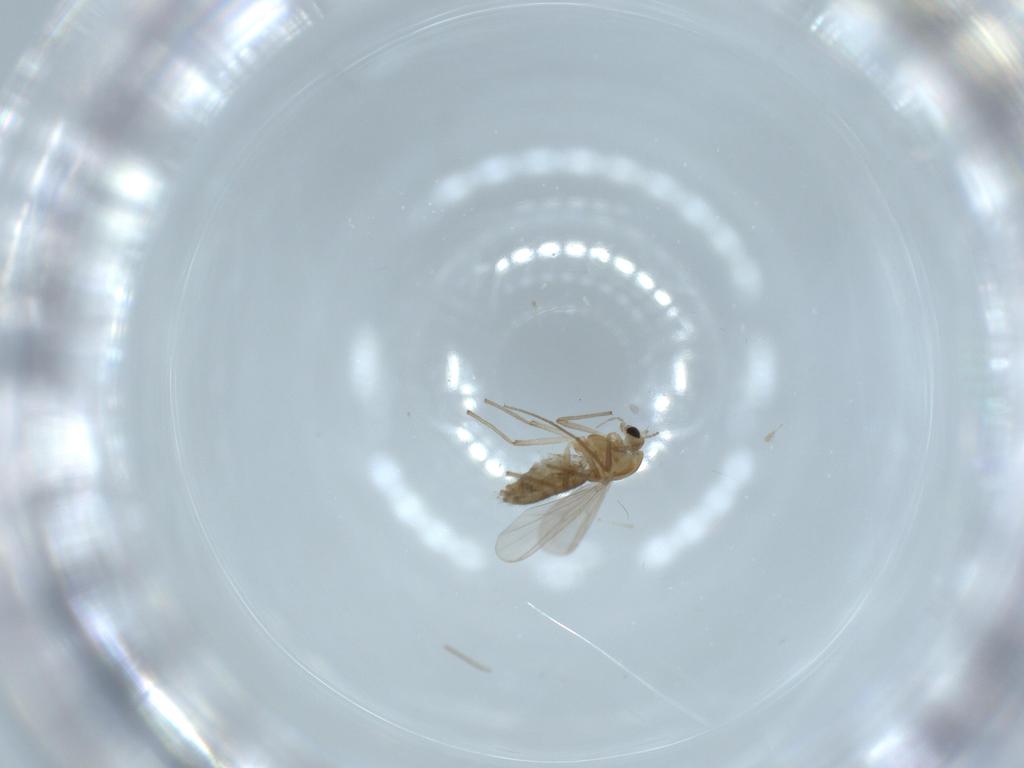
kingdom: Animalia
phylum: Arthropoda
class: Insecta
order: Diptera
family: Chironomidae
